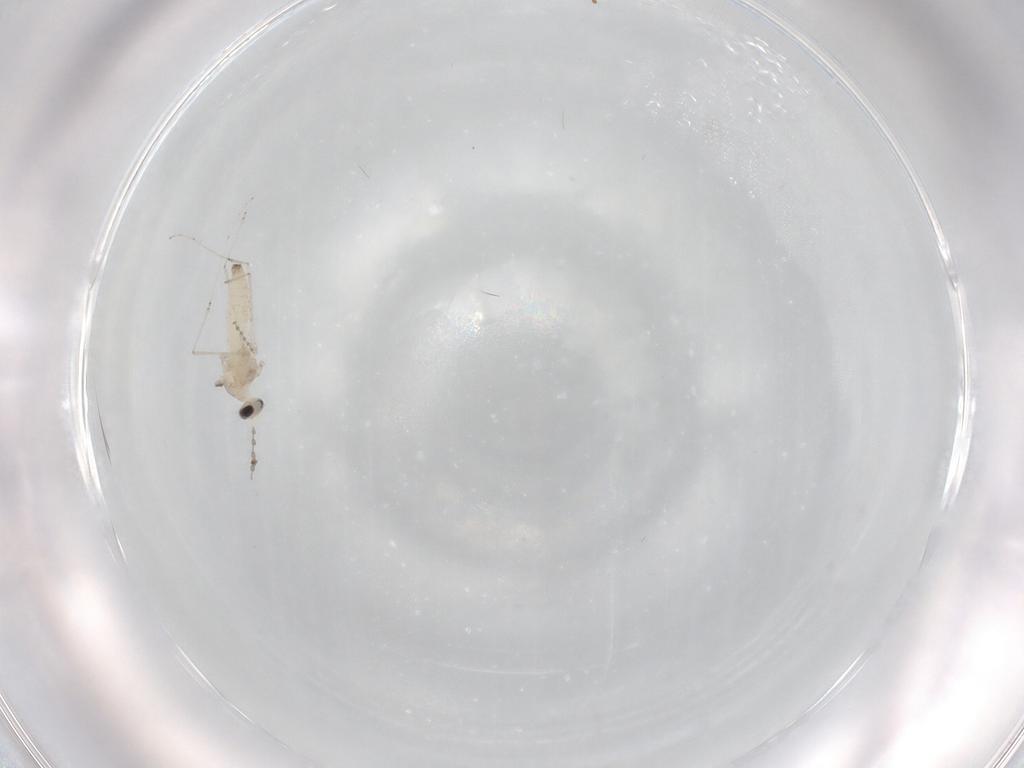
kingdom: Animalia
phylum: Arthropoda
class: Insecta
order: Diptera
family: Cecidomyiidae
